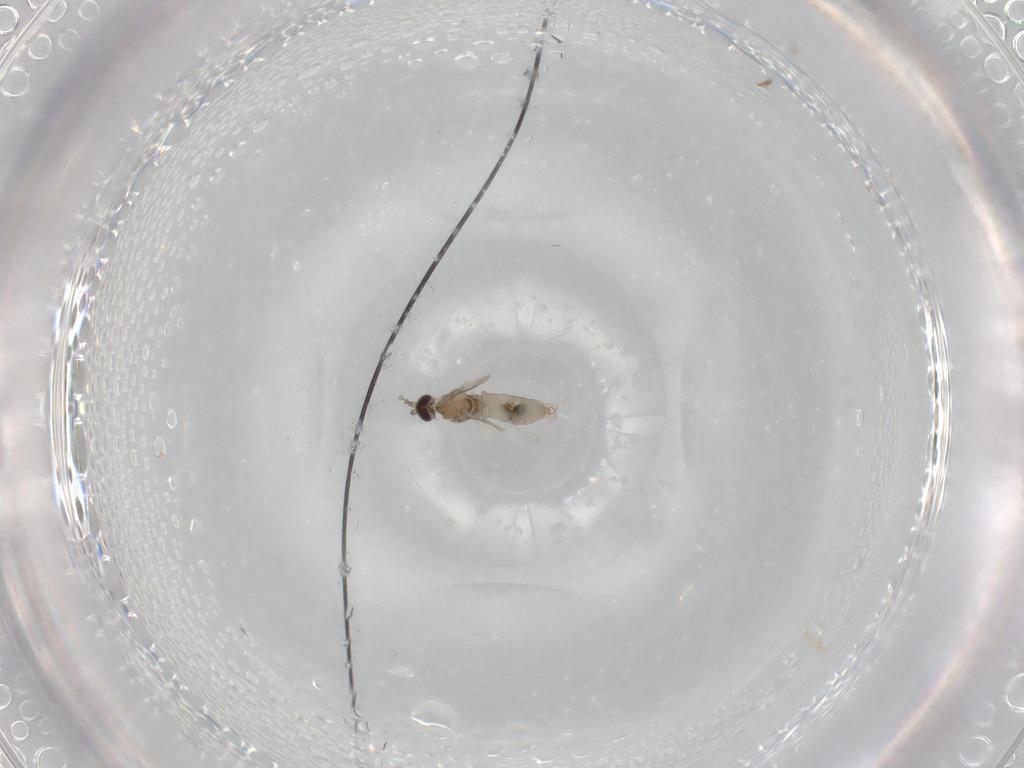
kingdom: Animalia
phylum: Arthropoda
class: Insecta
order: Diptera
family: Cecidomyiidae
